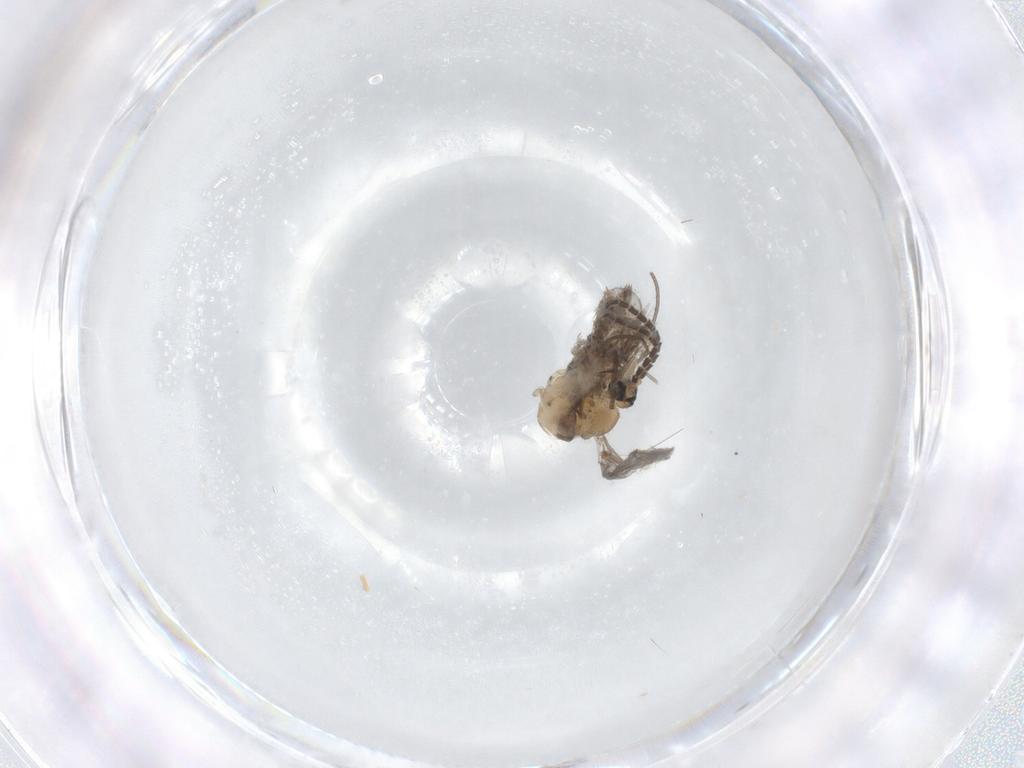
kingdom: Animalia
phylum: Arthropoda
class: Insecta
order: Diptera
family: Sciaridae
